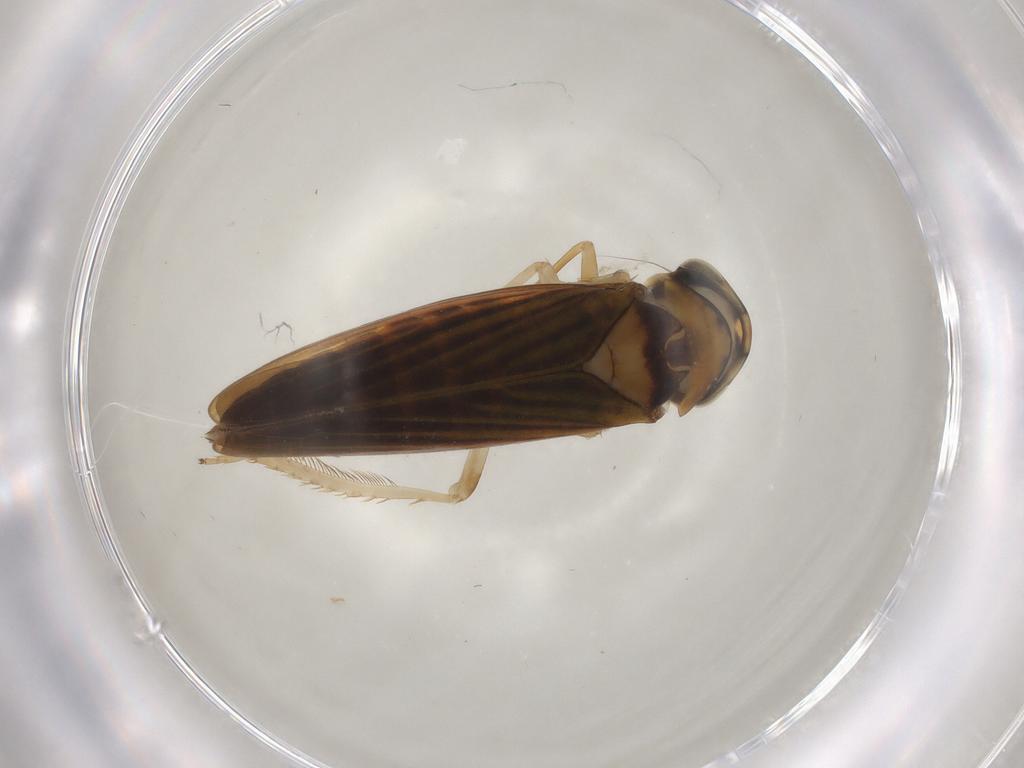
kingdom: Animalia
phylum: Arthropoda
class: Insecta
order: Hemiptera
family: Cicadellidae
